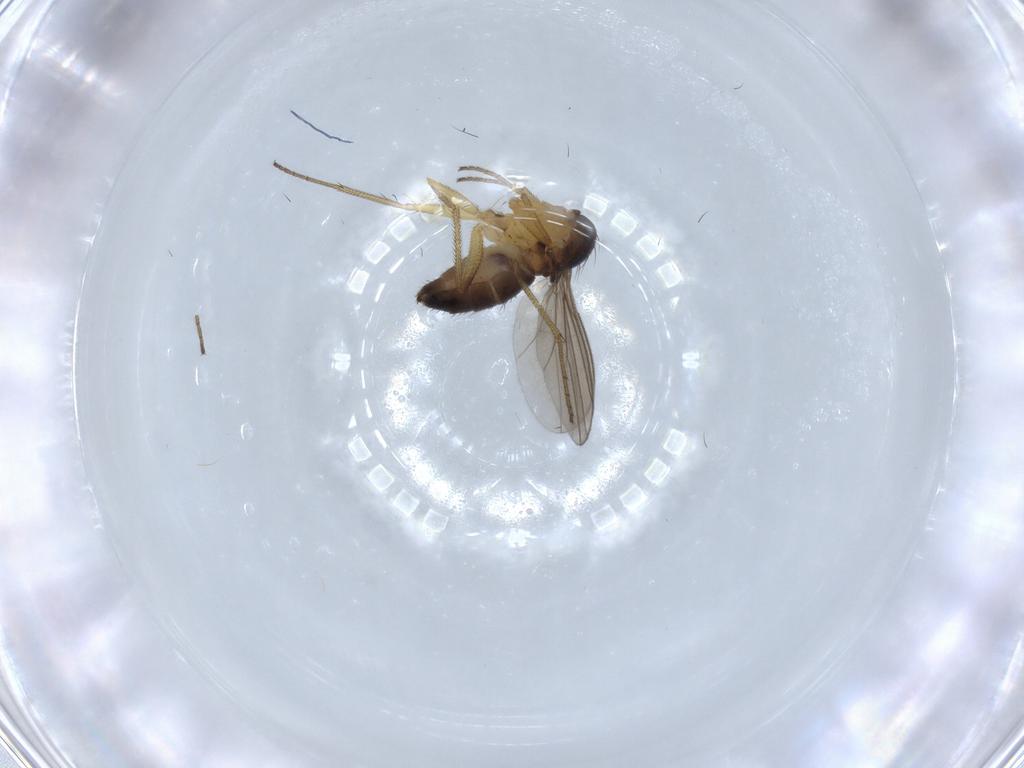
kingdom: Animalia
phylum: Arthropoda
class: Insecta
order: Diptera
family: Dolichopodidae
